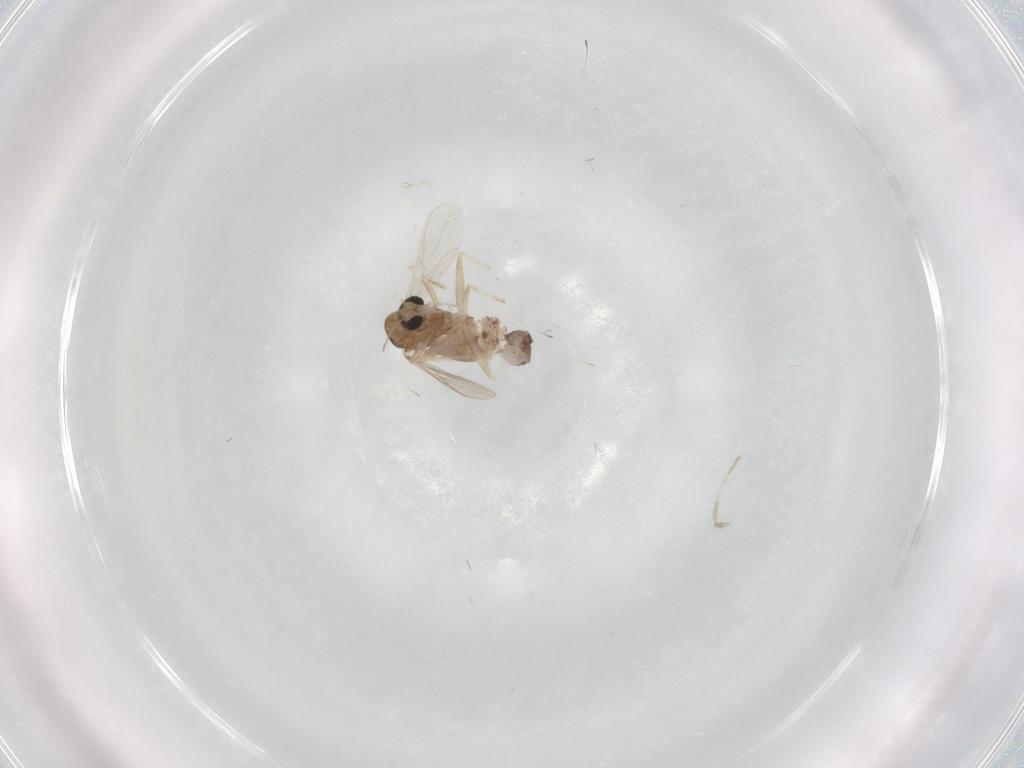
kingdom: Animalia
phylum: Arthropoda
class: Insecta
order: Diptera
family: Chironomidae
